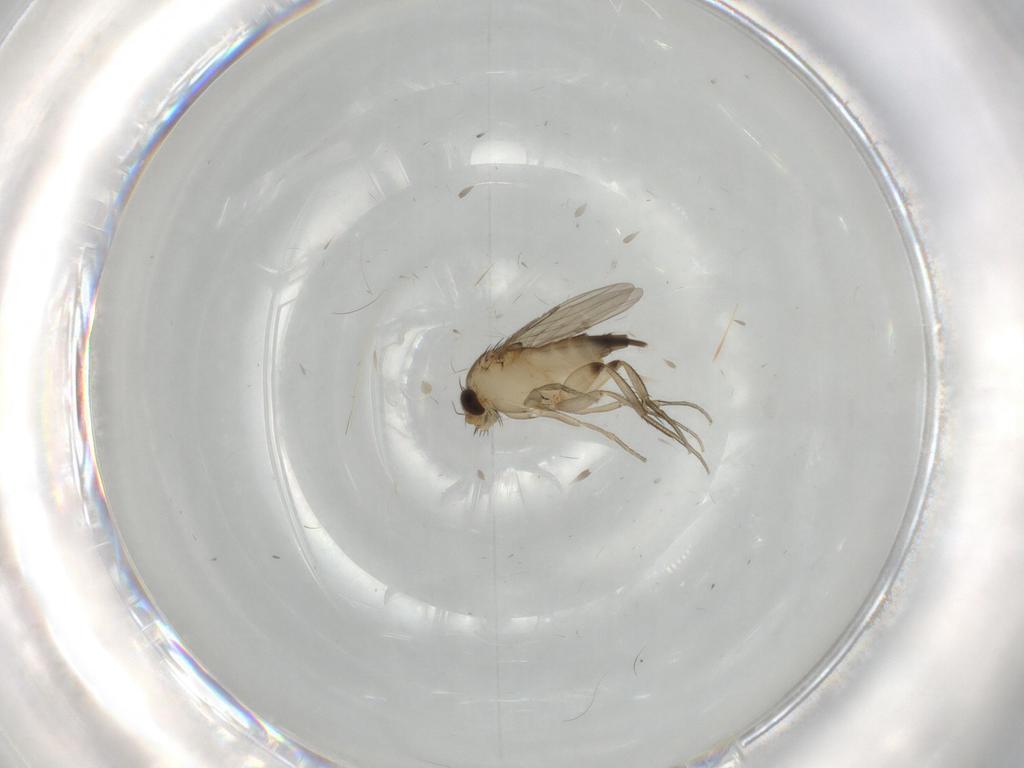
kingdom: Animalia
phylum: Arthropoda
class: Insecta
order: Diptera
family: Phoridae
